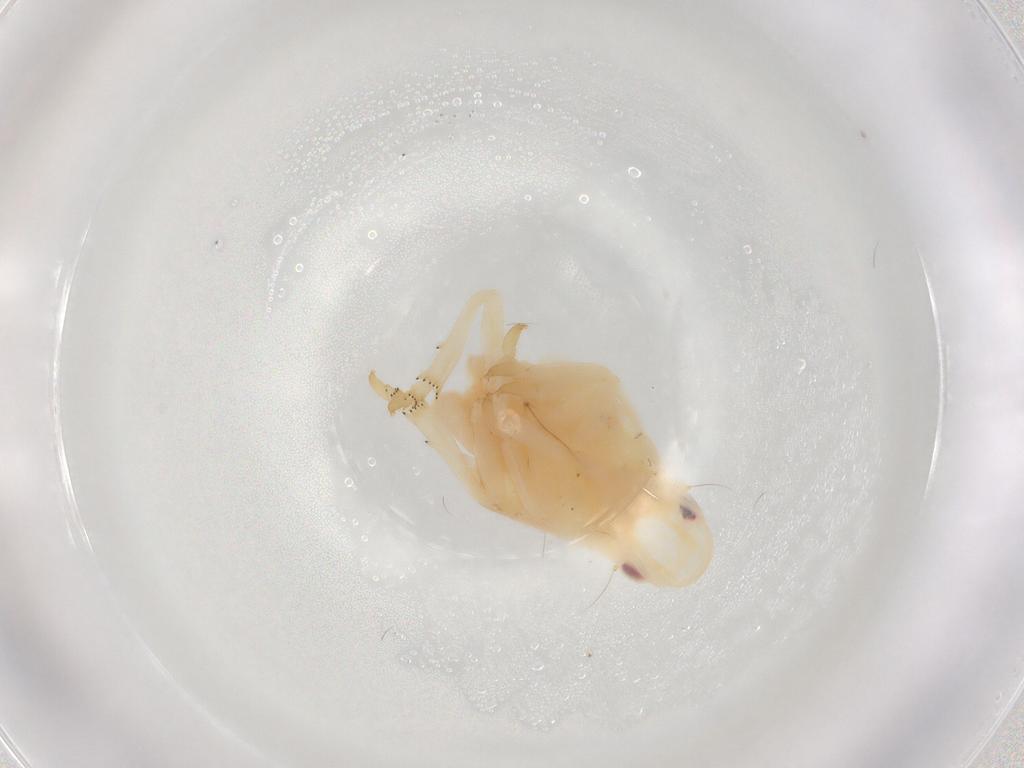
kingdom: Animalia
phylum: Arthropoda
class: Insecta
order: Hemiptera
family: Flatidae
